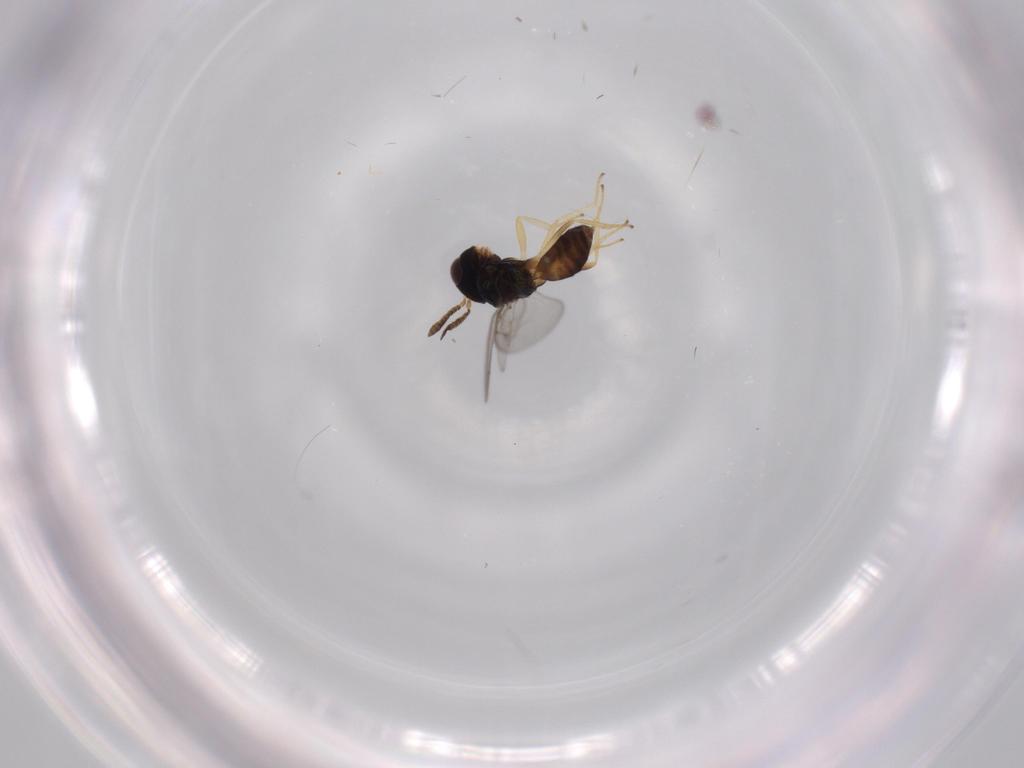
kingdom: Animalia
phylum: Arthropoda
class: Insecta
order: Hymenoptera
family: Pteromalidae
